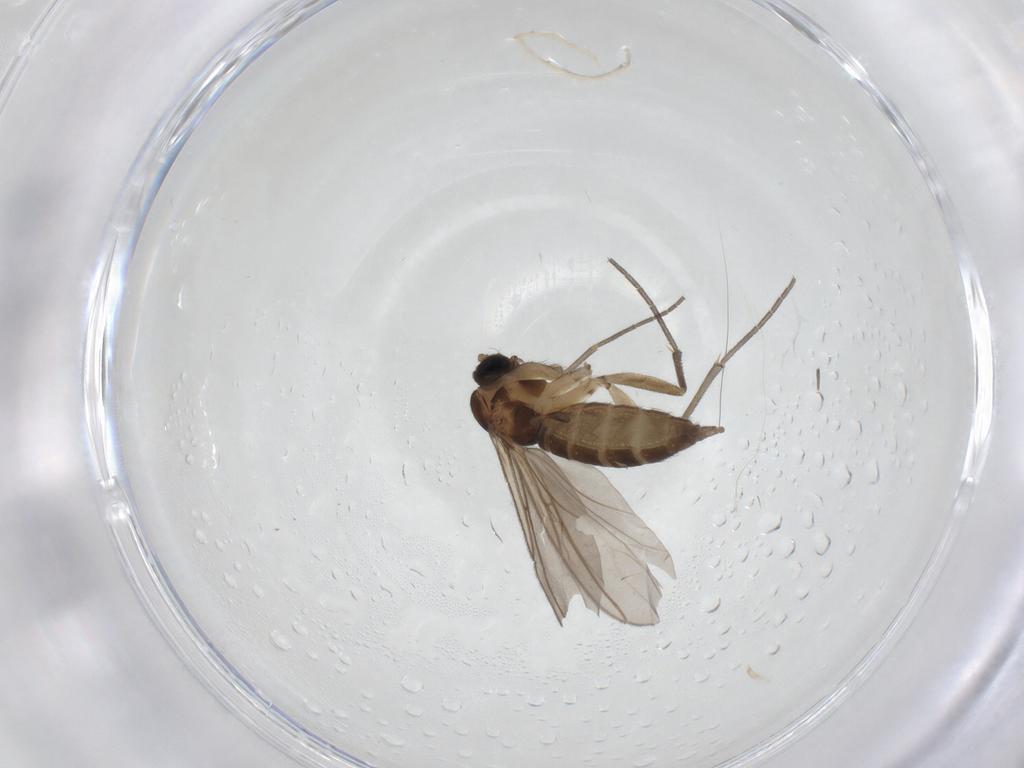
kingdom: Animalia
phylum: Arthropoda
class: Insecta
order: Diptera
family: Sciaridae
